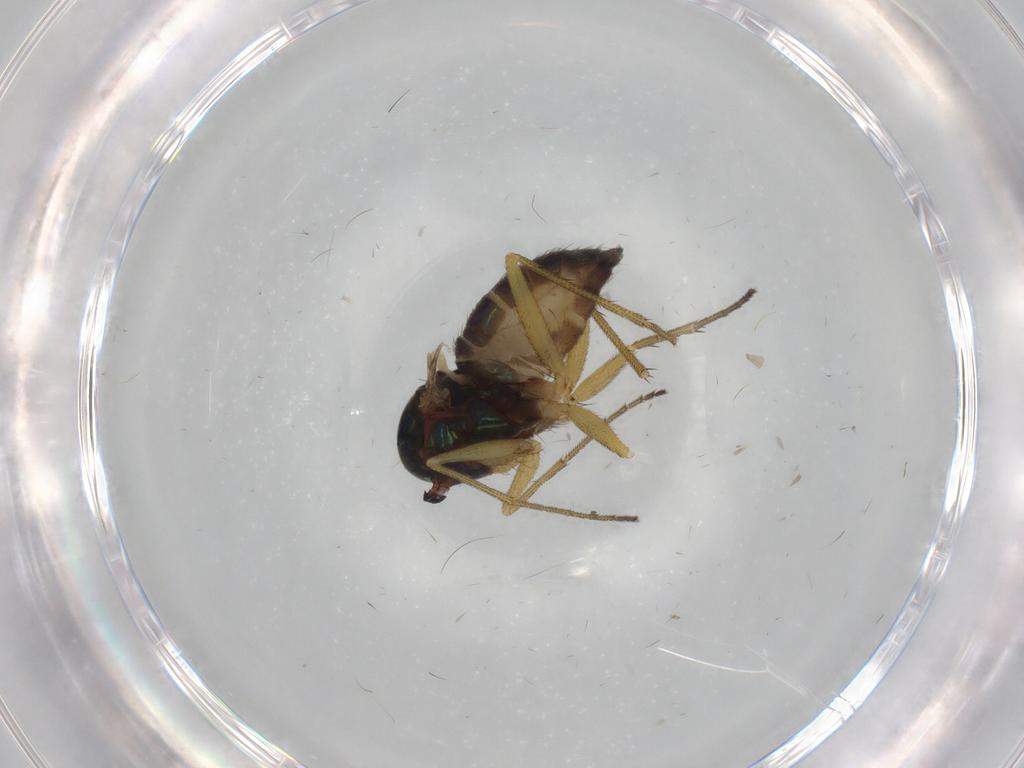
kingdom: Animalia
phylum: Arthropoda
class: Insecta
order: Diptera
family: Dolichopodidae
